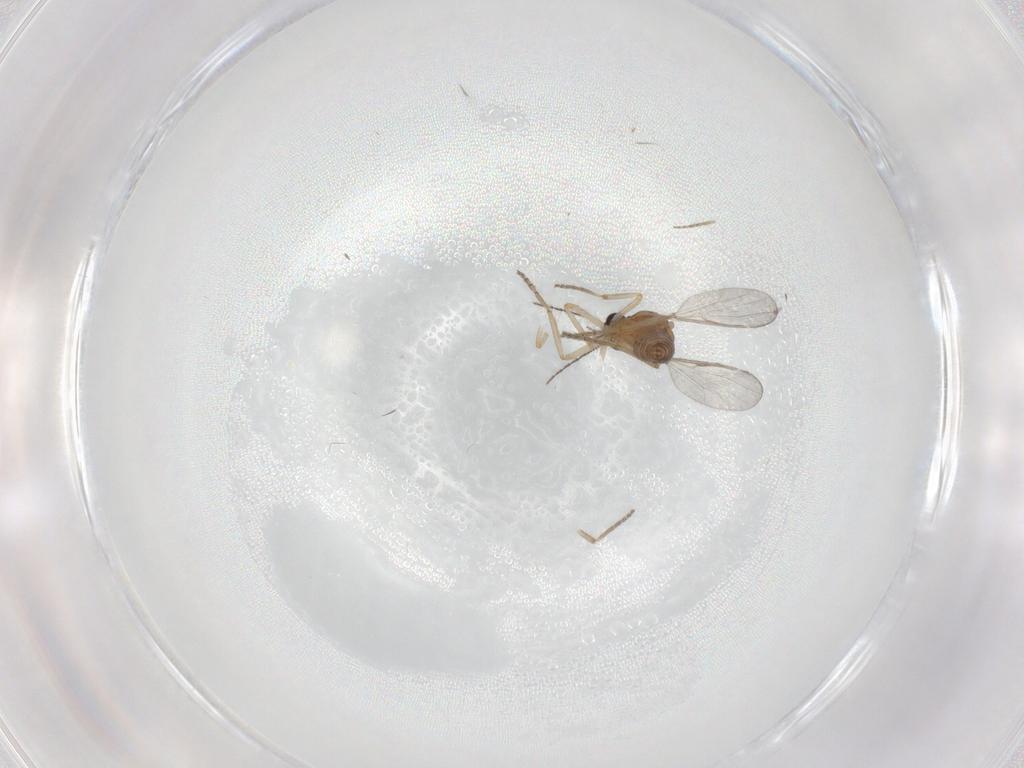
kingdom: Animalia
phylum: Arthropoda
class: Insecta
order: Diptera
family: Ceratopogonidae
